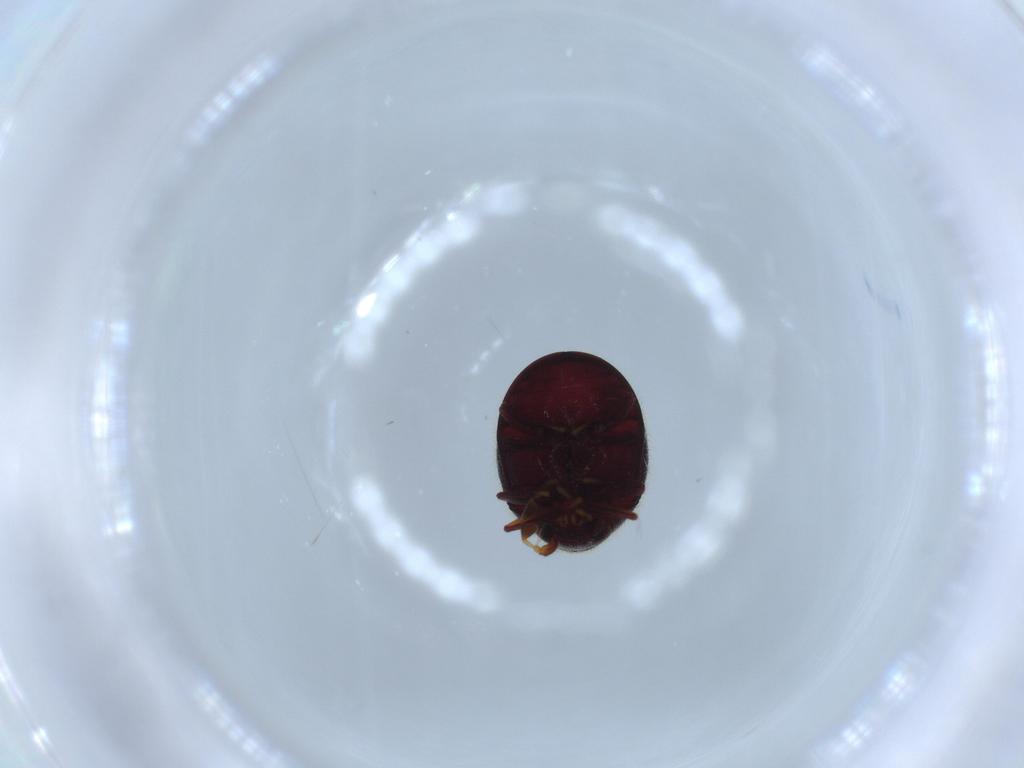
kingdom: Animalia
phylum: Arthropoda
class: Insecta
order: Coleoptera
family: Ptinidae
